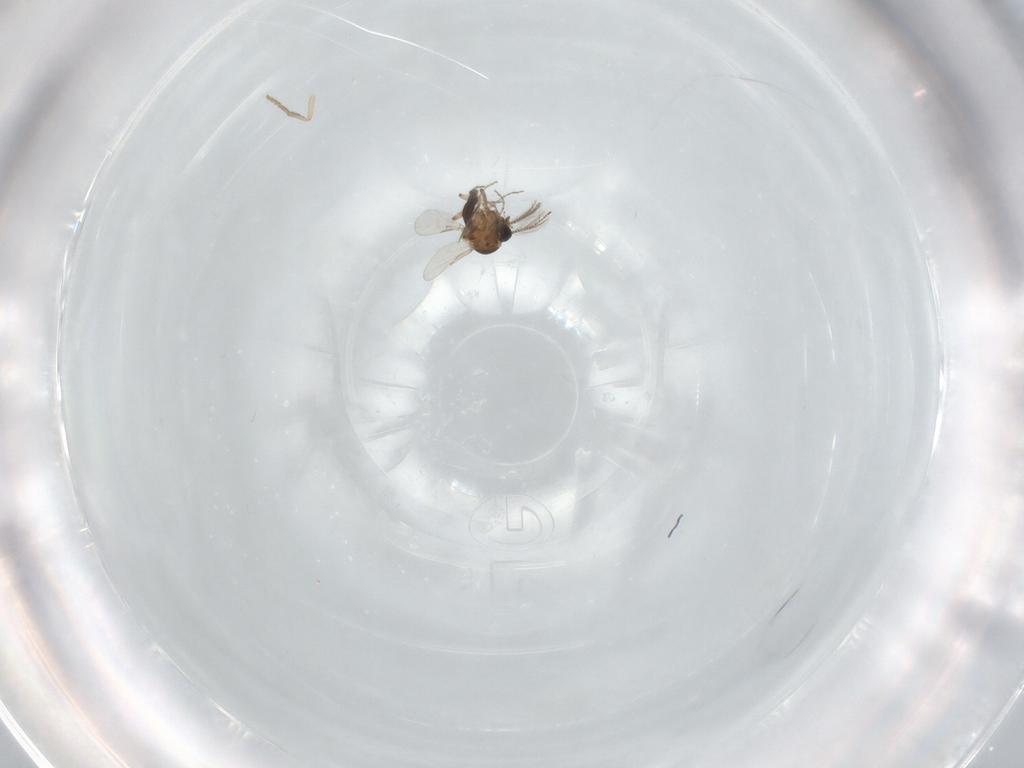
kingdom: Animalia
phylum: Arthropoda
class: Insecta
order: Diptera
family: Ceratopogonidae
